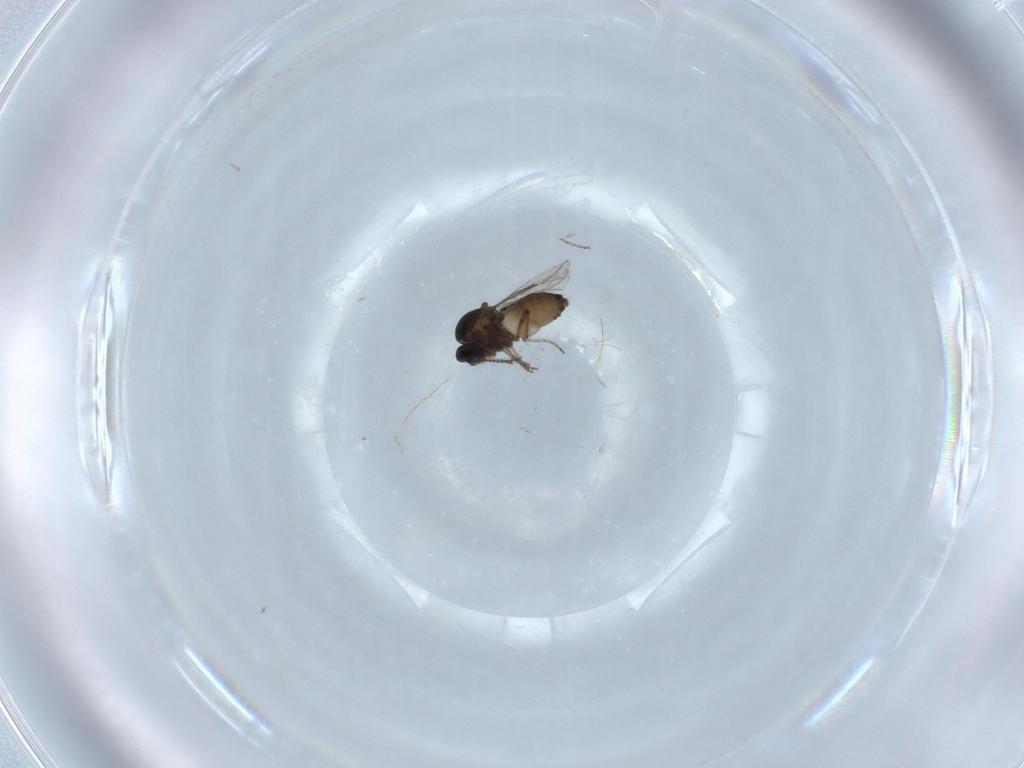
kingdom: Animalia
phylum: Arthropoda
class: Insecta
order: Diptera
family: Ceratopogonidae
